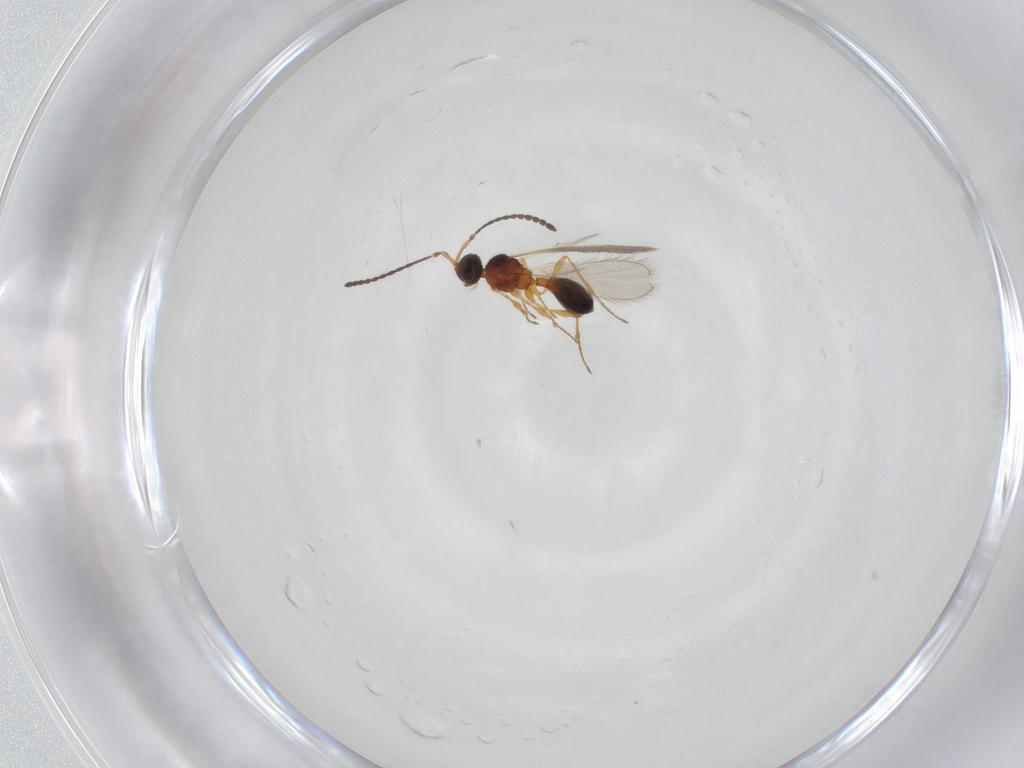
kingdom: Animalia
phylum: Arthropoda
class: Insecta
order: Hymenoptera
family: Diapriidae
